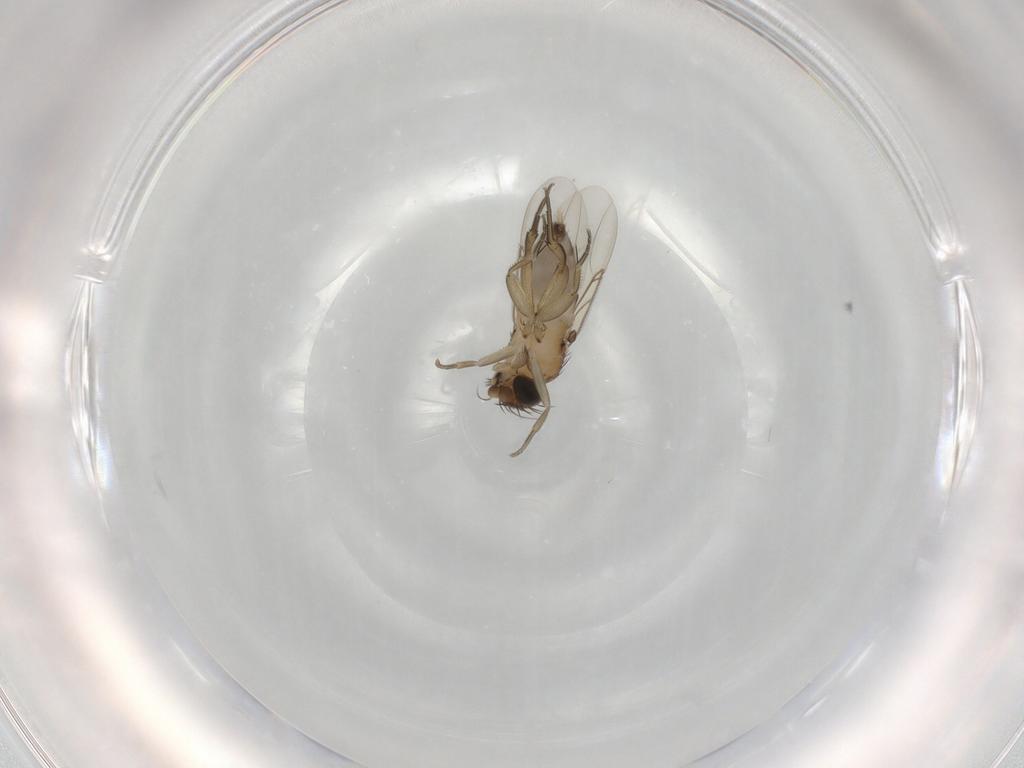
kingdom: Animalia
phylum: Arthropoda
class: Insecta
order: Diptera
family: Phoridae
